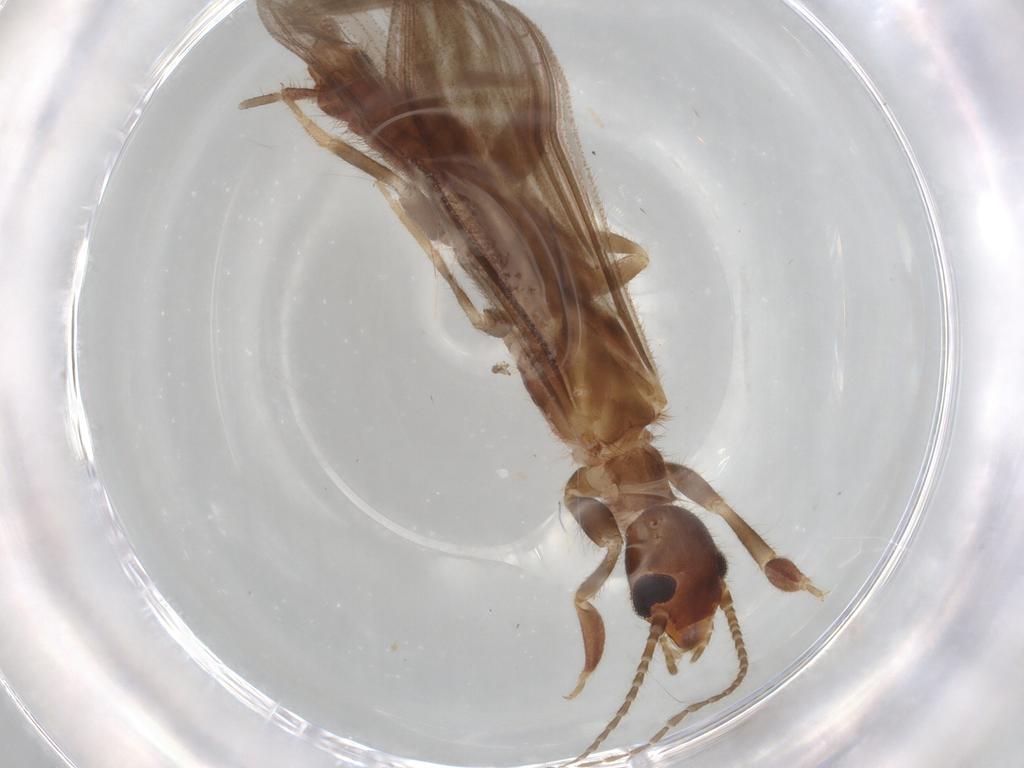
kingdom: Animalia
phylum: Arthropoda
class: Insecta
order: Embioptera
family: Oligotomidae
